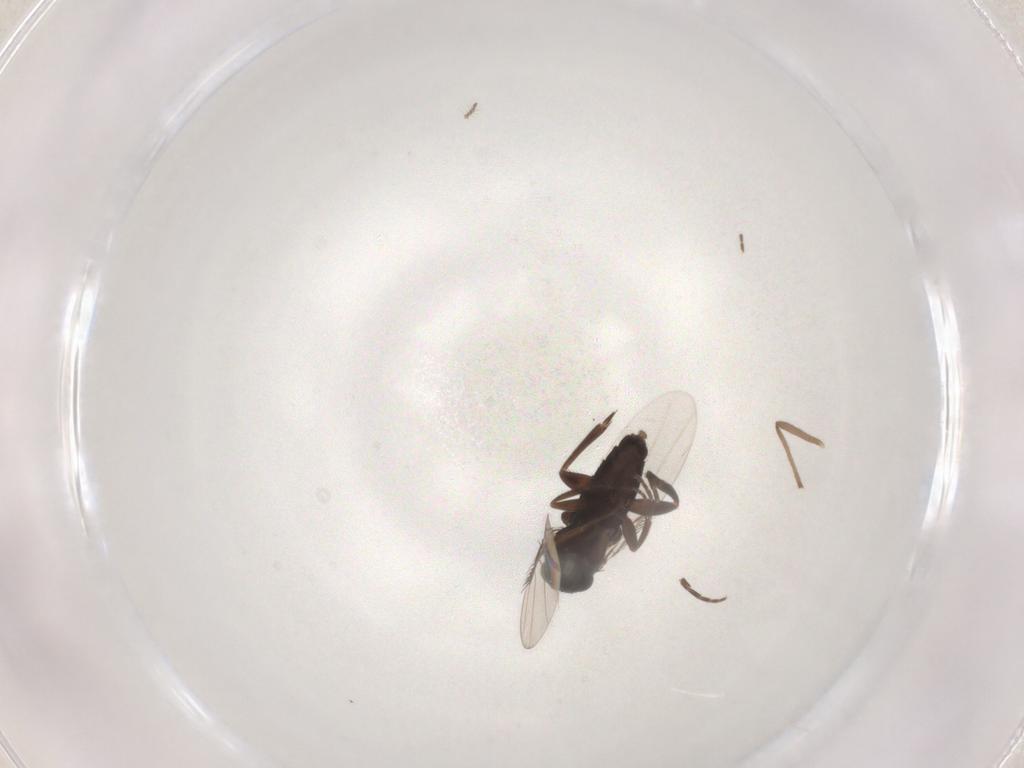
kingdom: Animalia
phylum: Arthropoda
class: Insecta
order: Diptera
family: Phoridae
